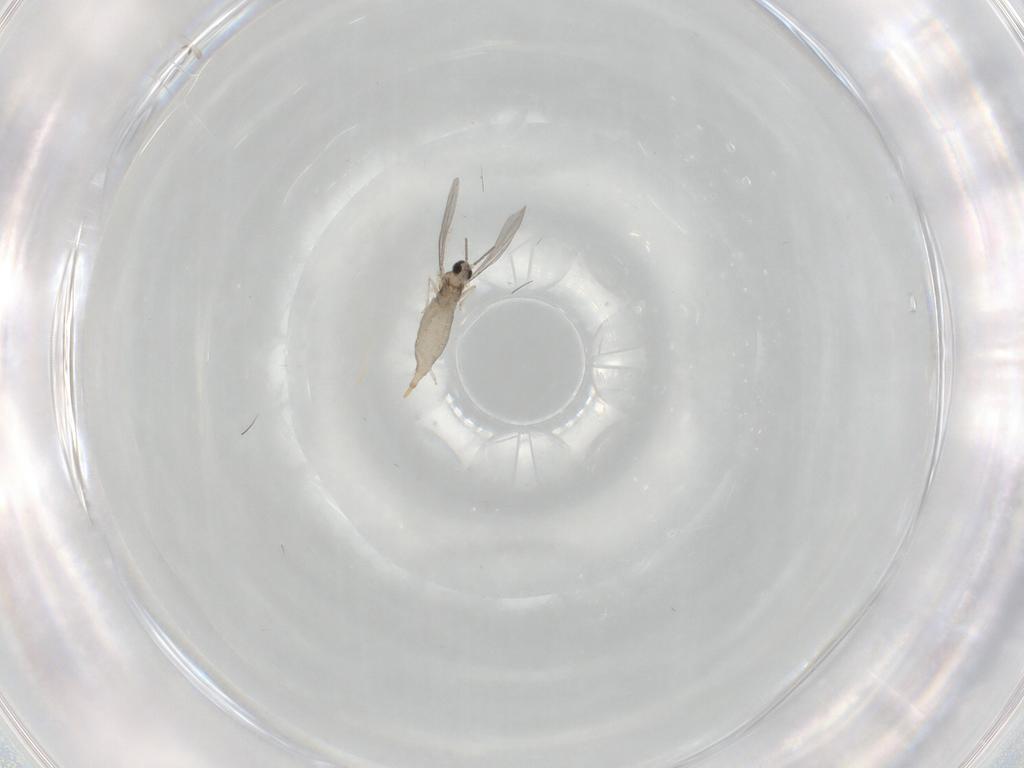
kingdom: Animalia
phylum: Arthropoda
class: Insecta
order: Diptera
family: Cecidomyiidae
